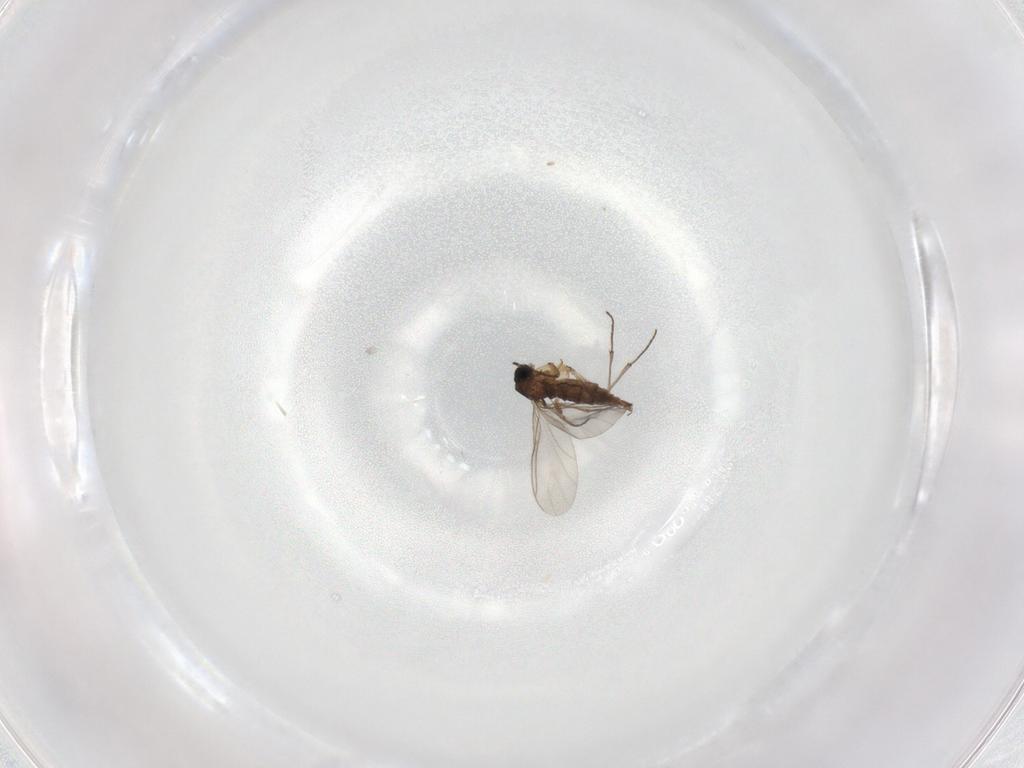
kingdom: Animalia
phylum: Arthropoda
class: Insecta
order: Diptera
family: Sciaridae
